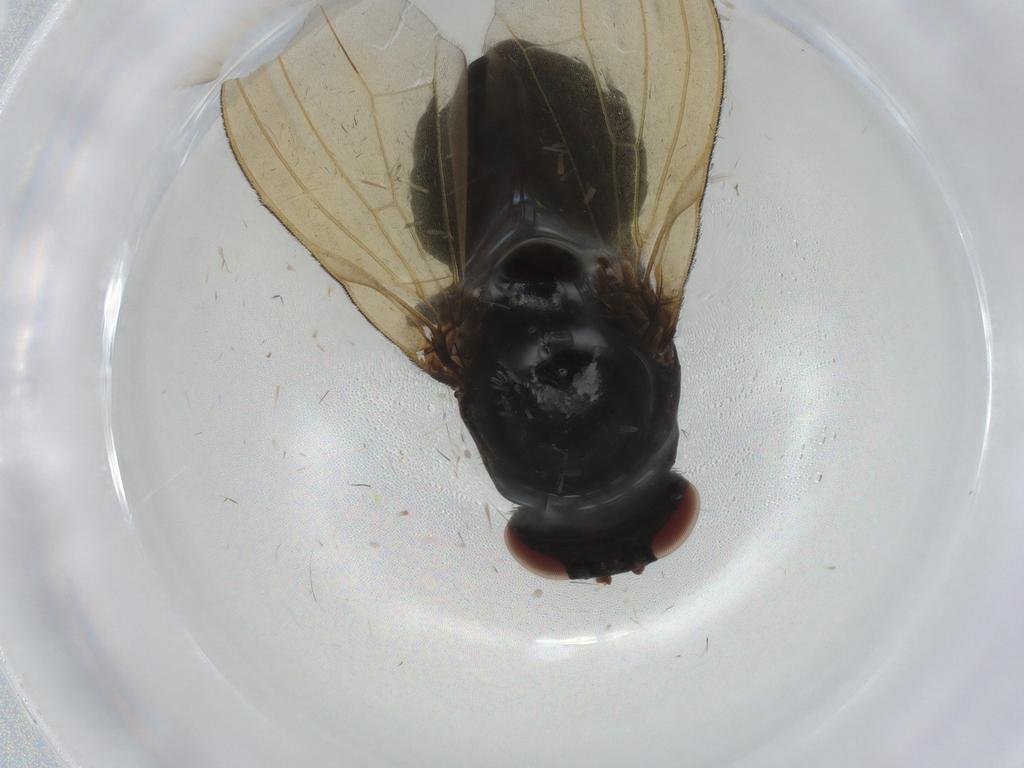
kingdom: Animalia
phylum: Arthropoda
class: Insecta
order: Diptera
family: Lauxaniidae
